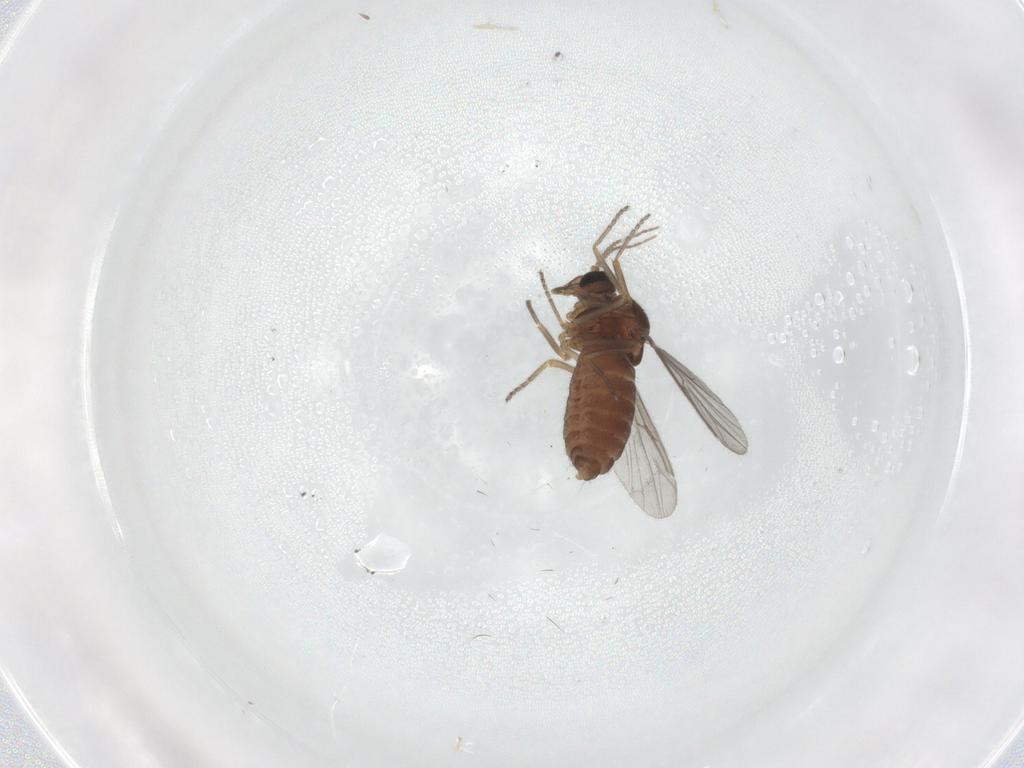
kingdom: Animalia
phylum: Arthropoda
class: Insecta
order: Diptera
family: Ceratopogonidae
